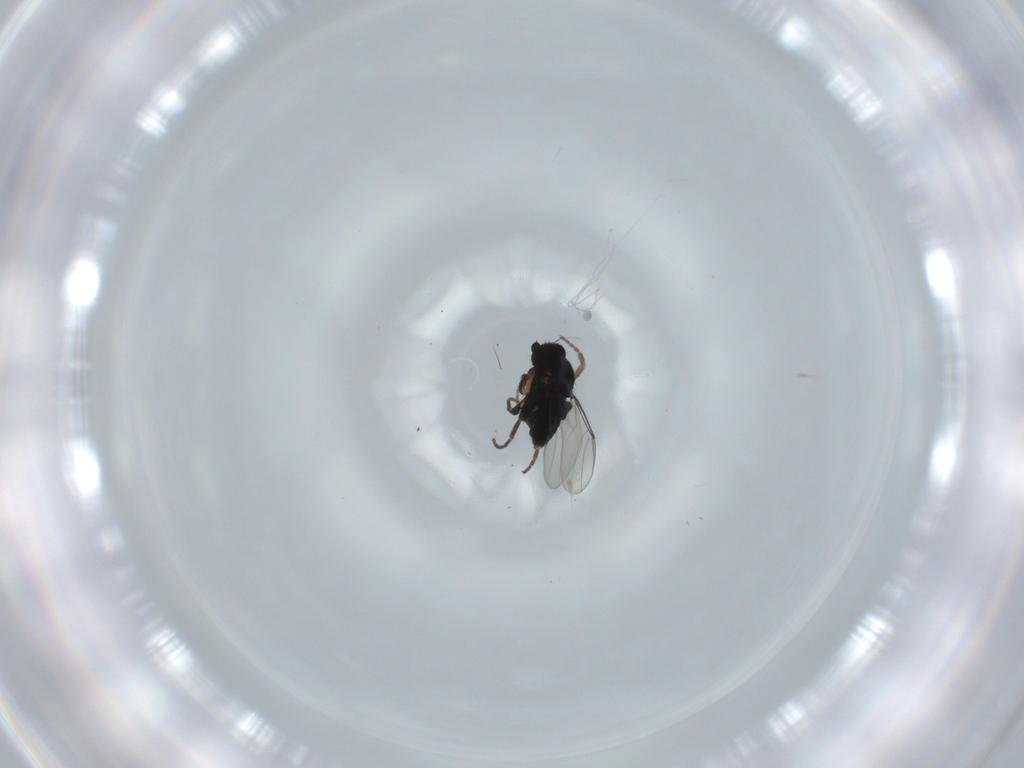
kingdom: Animalia
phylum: Arthropoda
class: Insecta
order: Diptera
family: Phoridae
